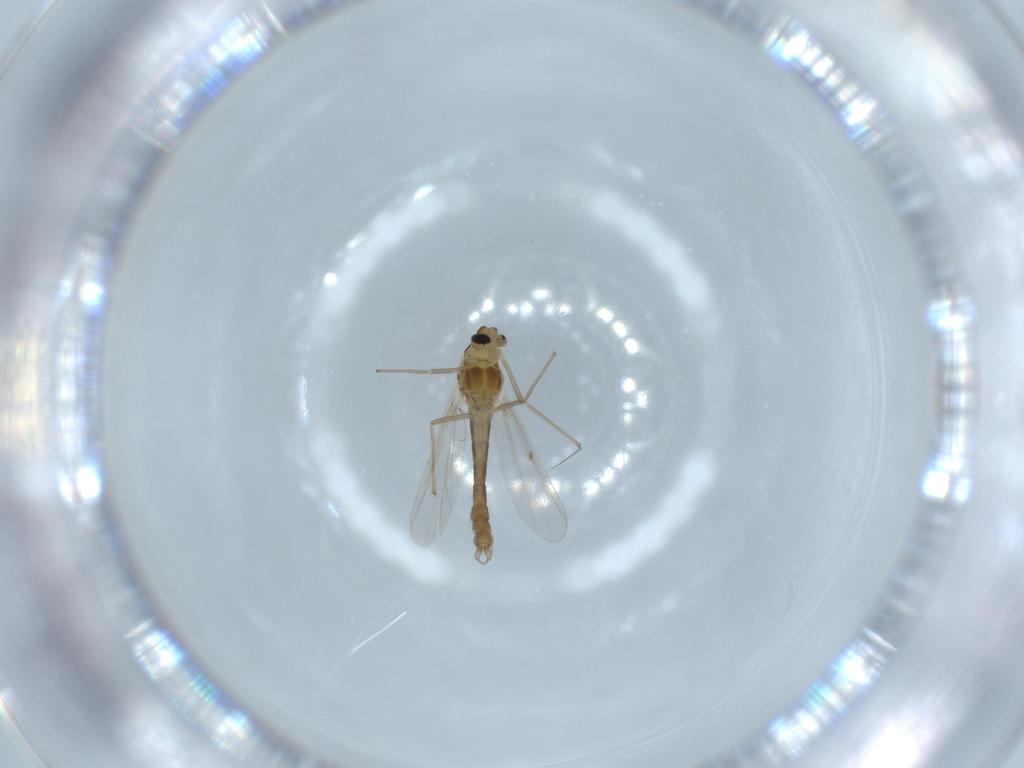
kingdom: Animalia
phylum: Arthropoda
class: Insecta
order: Diptera
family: Chironomidae
